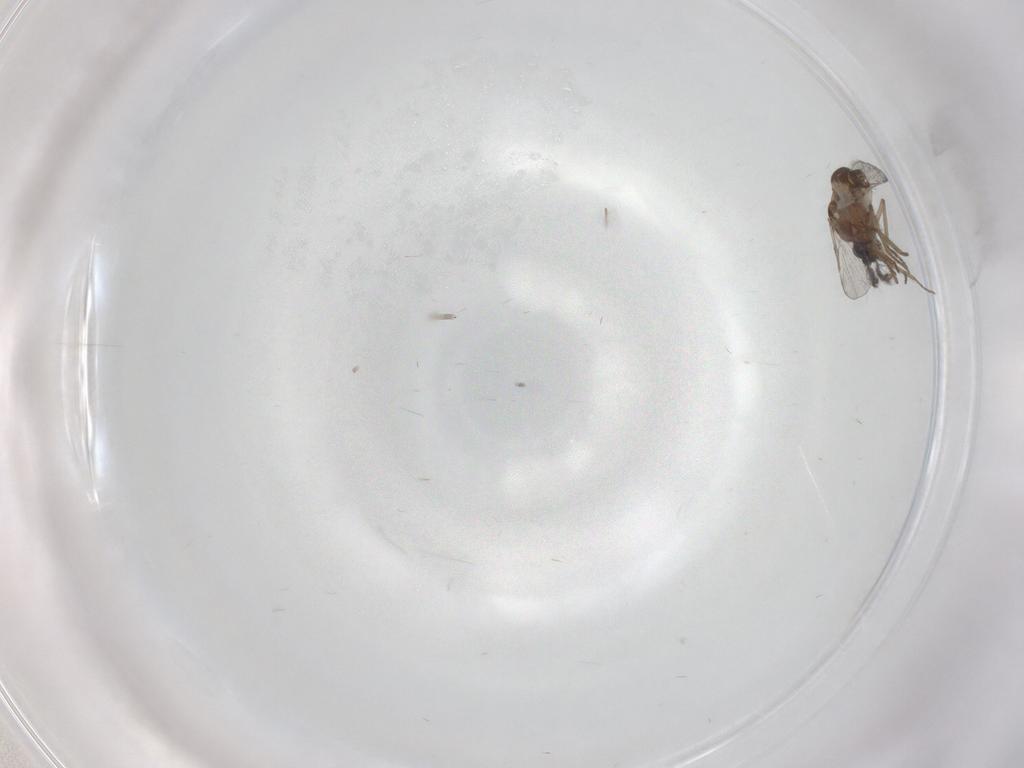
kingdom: Animalia
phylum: Arthropoda
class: Insecta
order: Diptera
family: Ceratopogonidae
